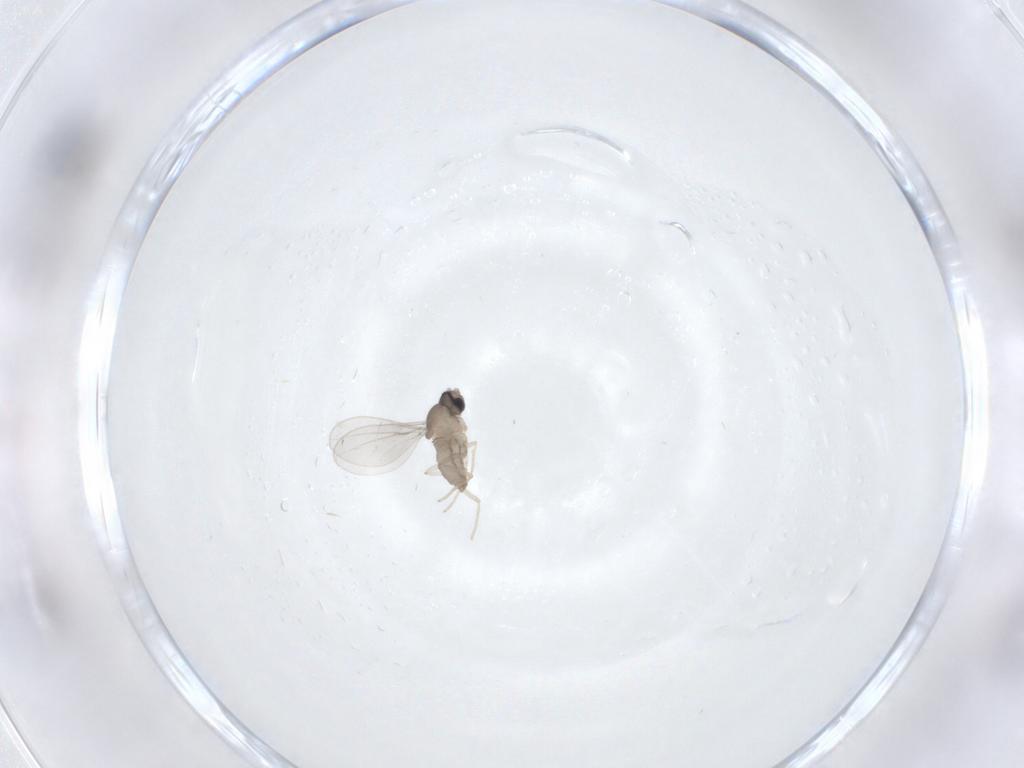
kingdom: Animalia
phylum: Arthropoda
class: Insecta
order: Diptera
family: Cecidomyiidae
